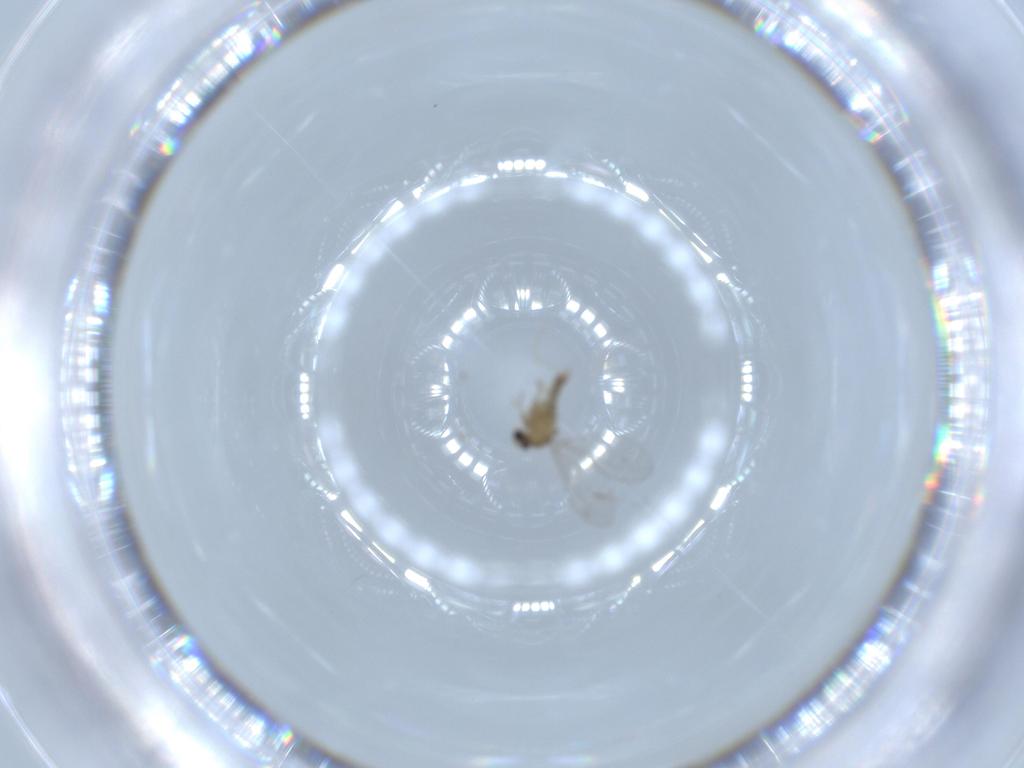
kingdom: Animalia
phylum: Arthropoda
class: Insecta
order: Diptera
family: Cecidomyiidae
